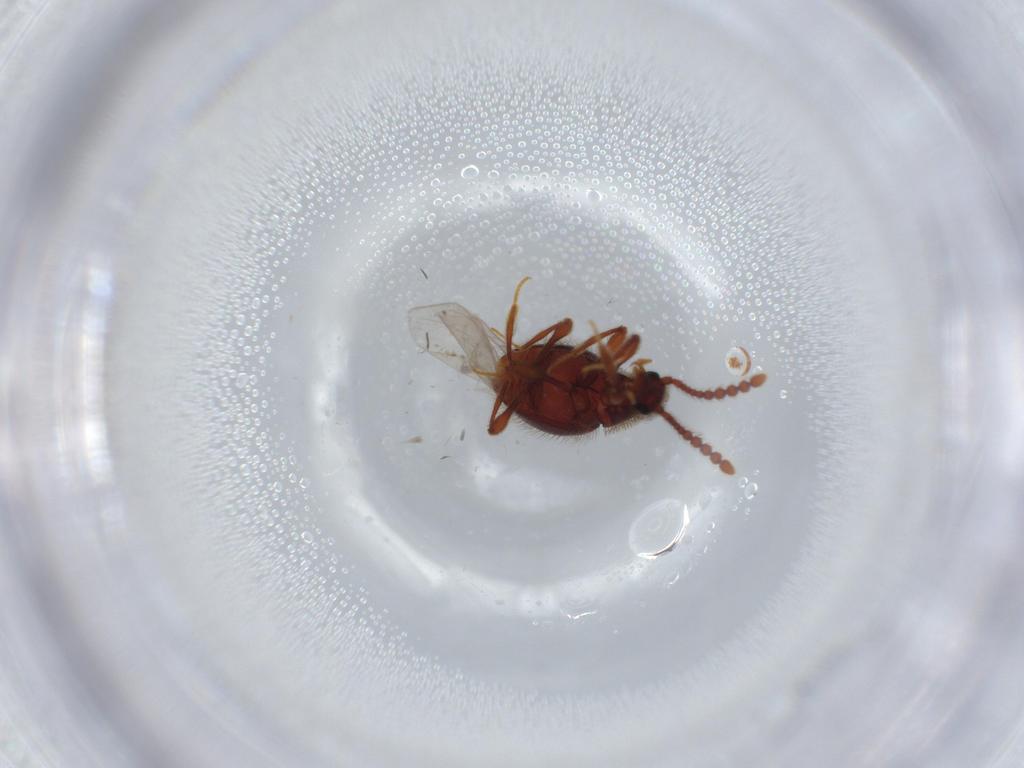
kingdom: Animalia
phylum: Arthropoda
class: Insecta
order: Coleoptera
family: Staphylinidae
